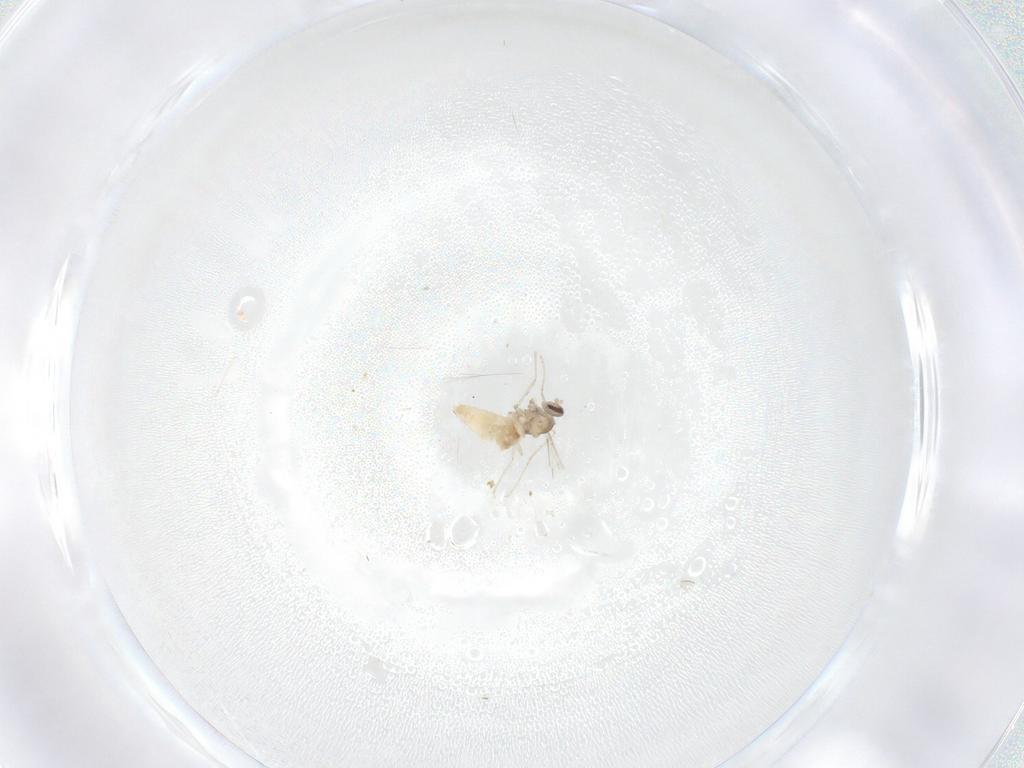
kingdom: Animalia
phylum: Arthropoda
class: Insecta
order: Diptera
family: Cecidomyiidae
